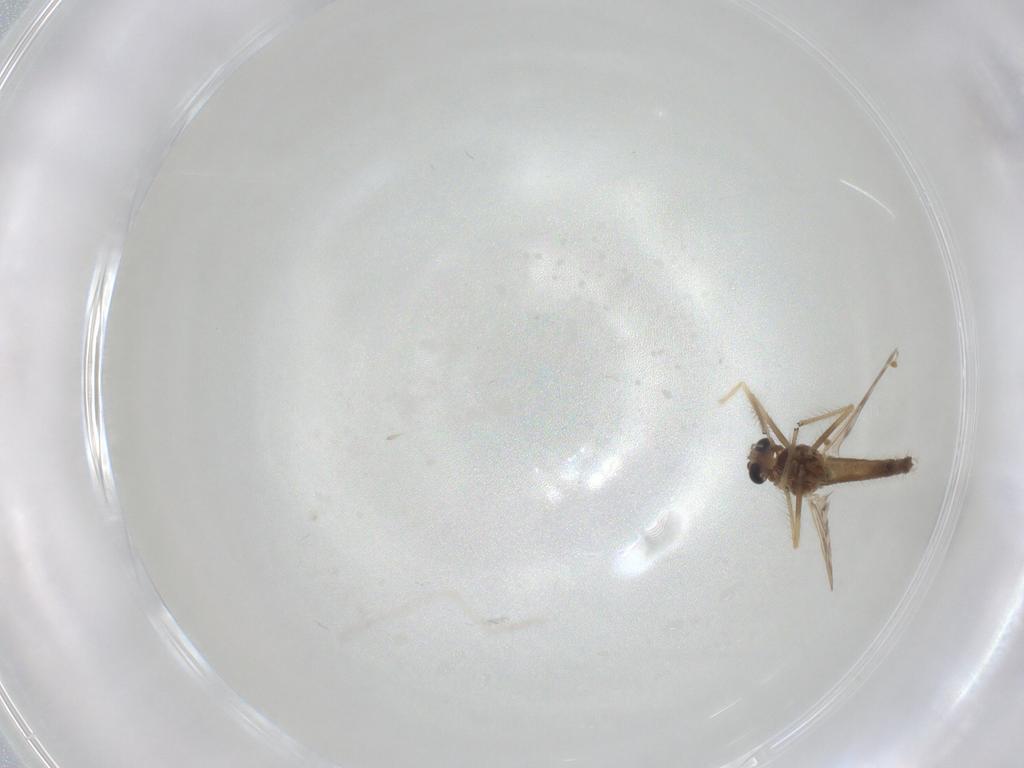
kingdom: Animalia
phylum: Arthropoda
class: Insecta
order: Diptera
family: Chironomidae
